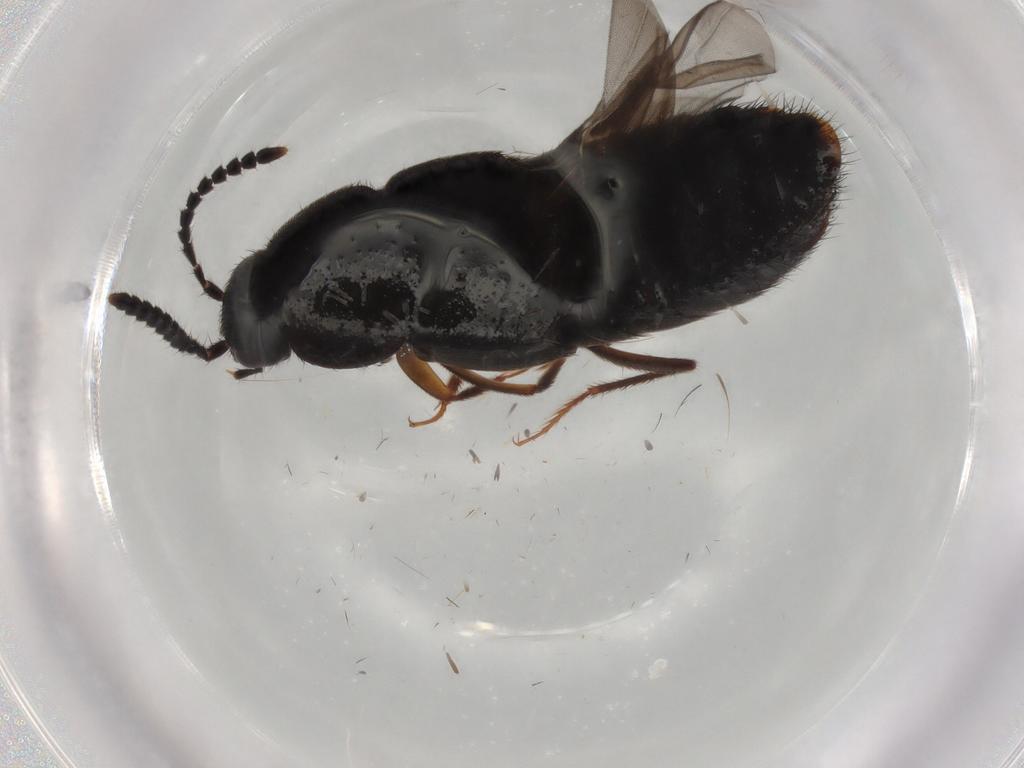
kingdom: Animalia
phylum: Arthropoda
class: Insecta
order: Coleoptera
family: Staphylinidae
